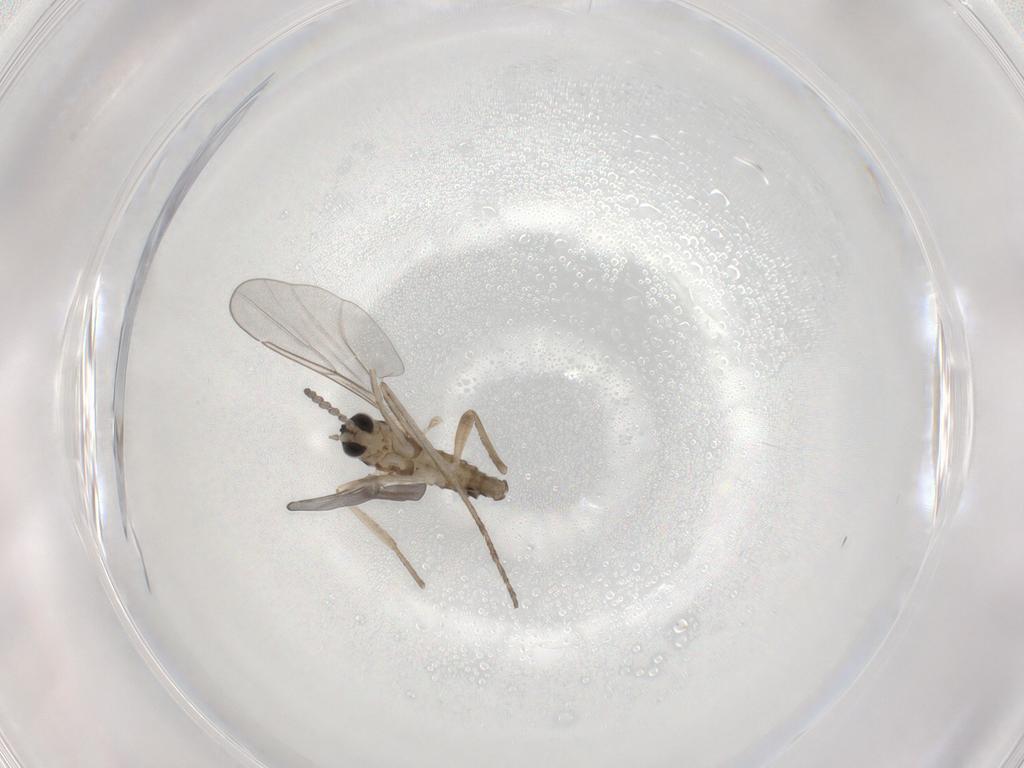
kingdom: Animalia
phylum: Arthropoda
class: Insecta
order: Diptera
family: Cecidomyiidae
